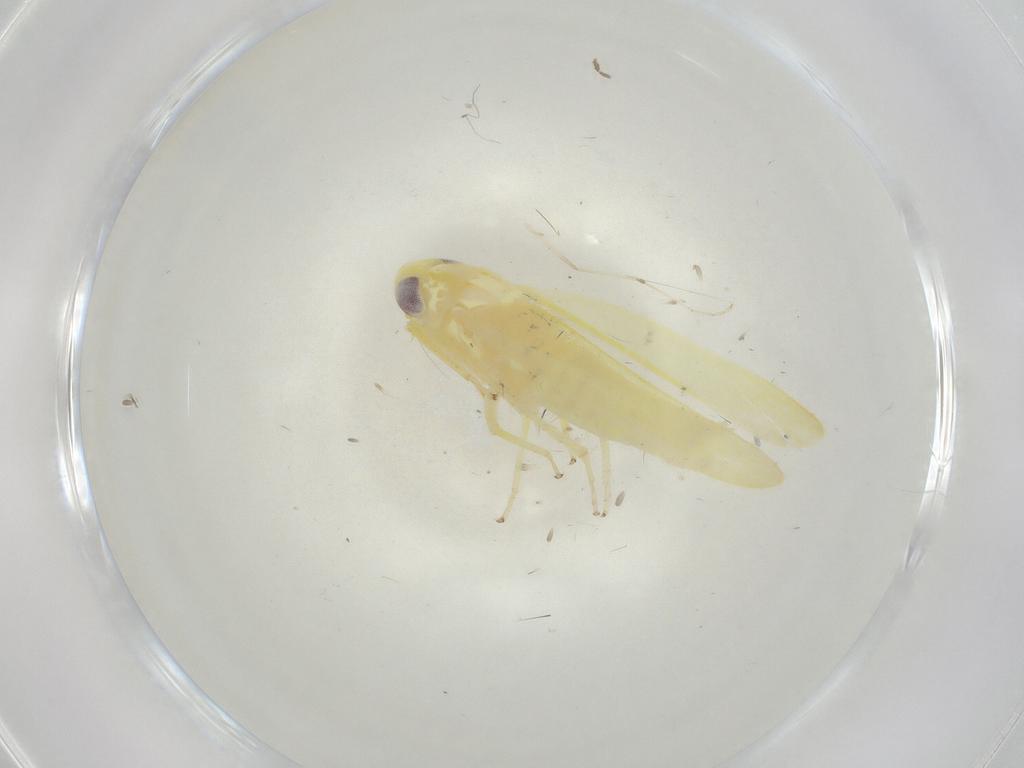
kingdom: Animalia
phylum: Arthropoda
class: Insecta
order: Hemiptera
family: Cicadellidae
